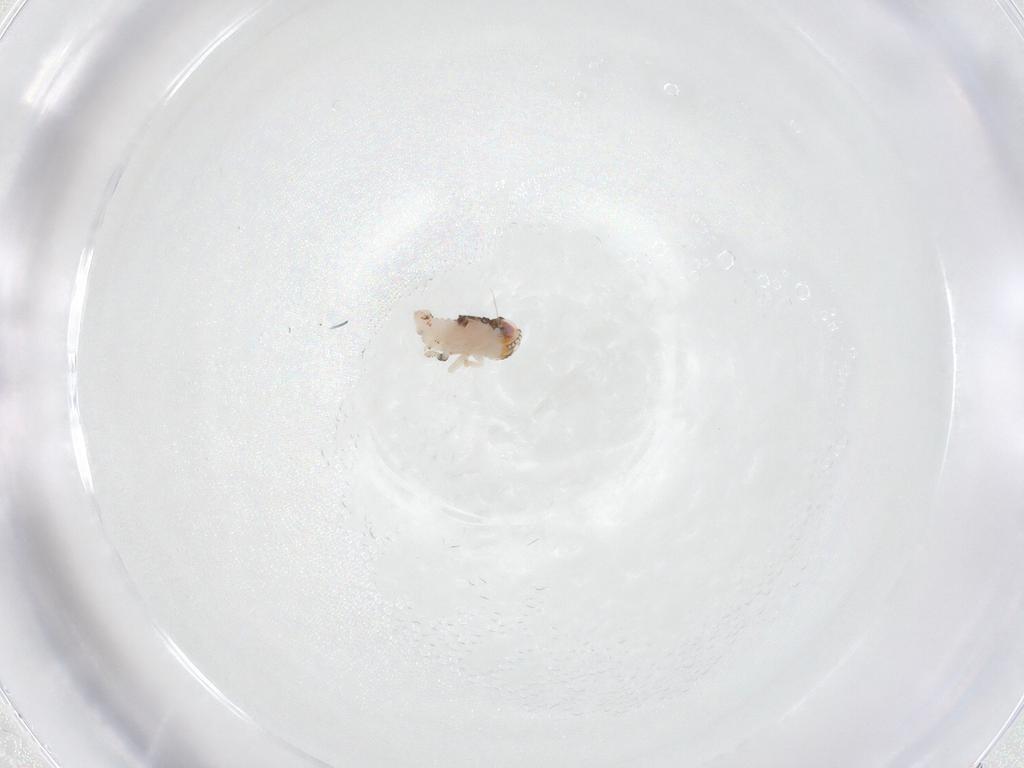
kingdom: Animalia
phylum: Arthropoda
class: Insecta
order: Hemiptera
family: Nogodinidae
